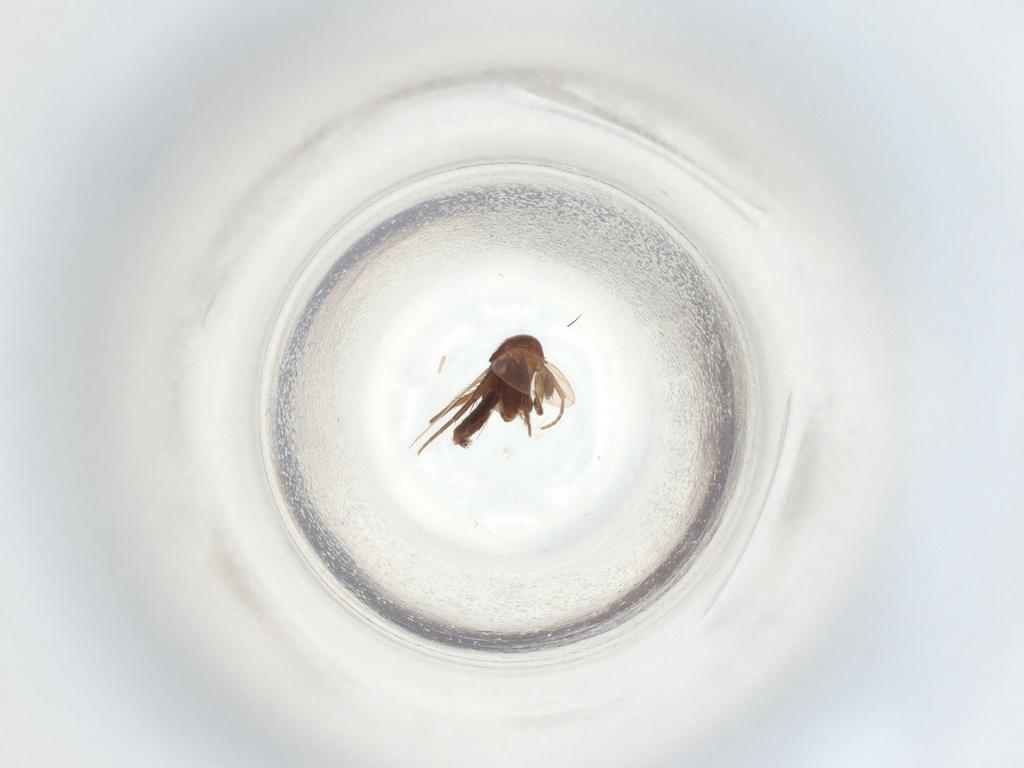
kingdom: Animalia
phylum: Arthropoda
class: Insecta
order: Diptera
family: Phoridae
